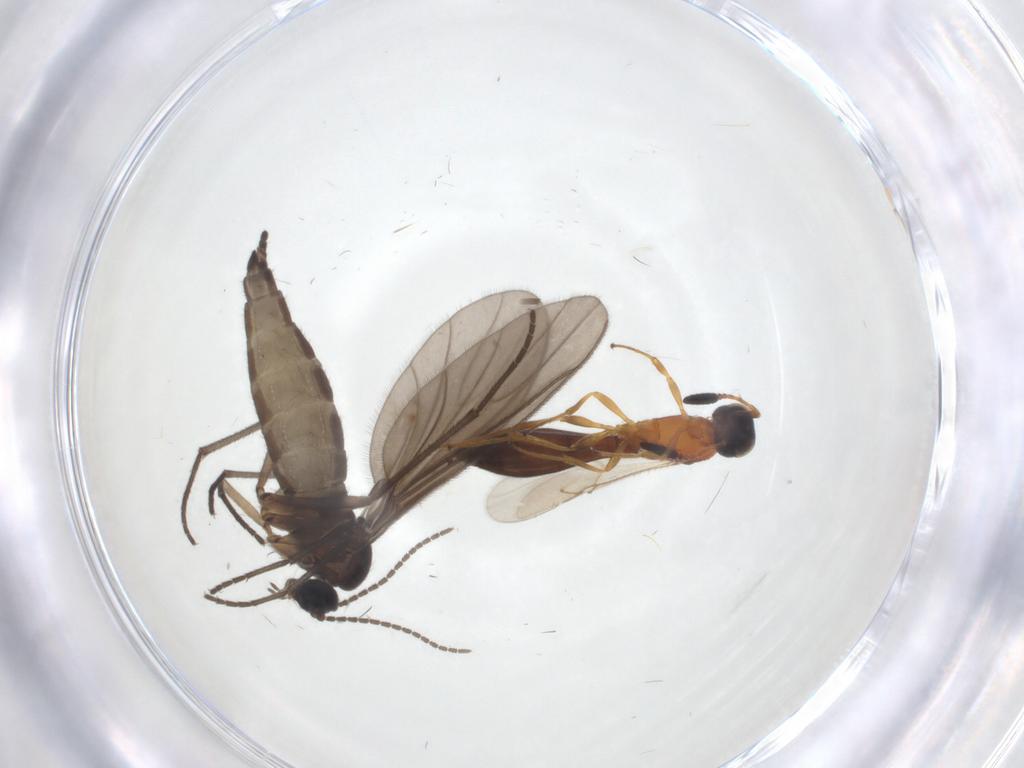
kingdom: Animalia
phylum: Arthropoda
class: Insecta
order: Diptera
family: Sciaridae
